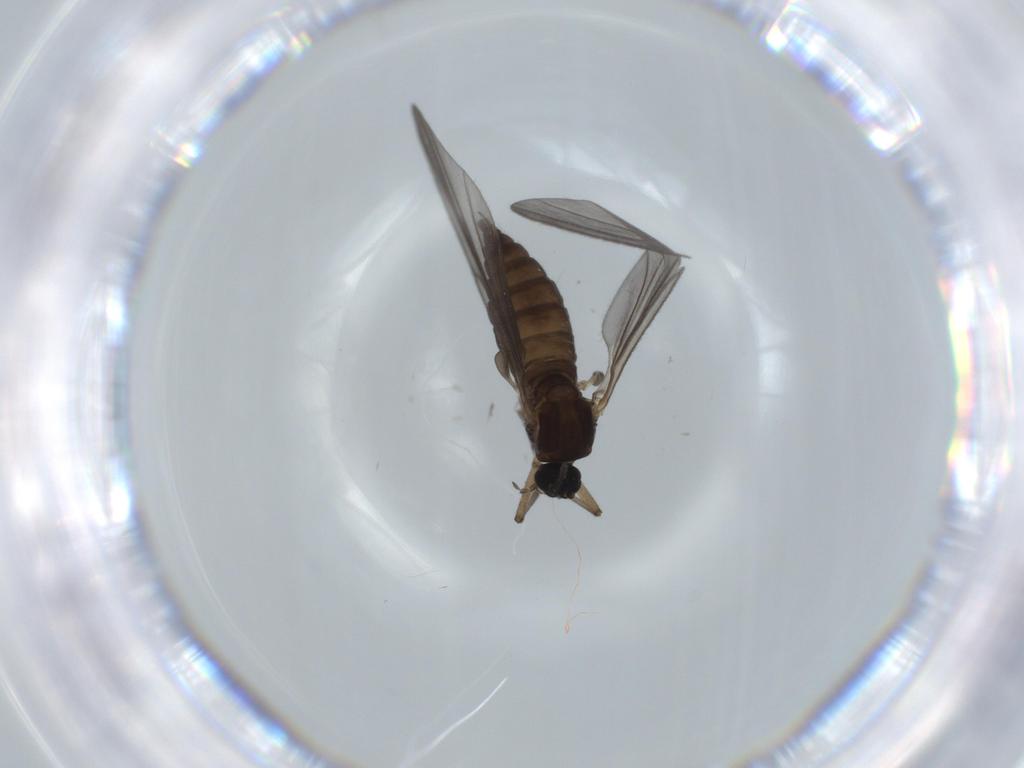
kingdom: Animalia
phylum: Arthropoda
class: Insecta
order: Diptera
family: Sciaridae
